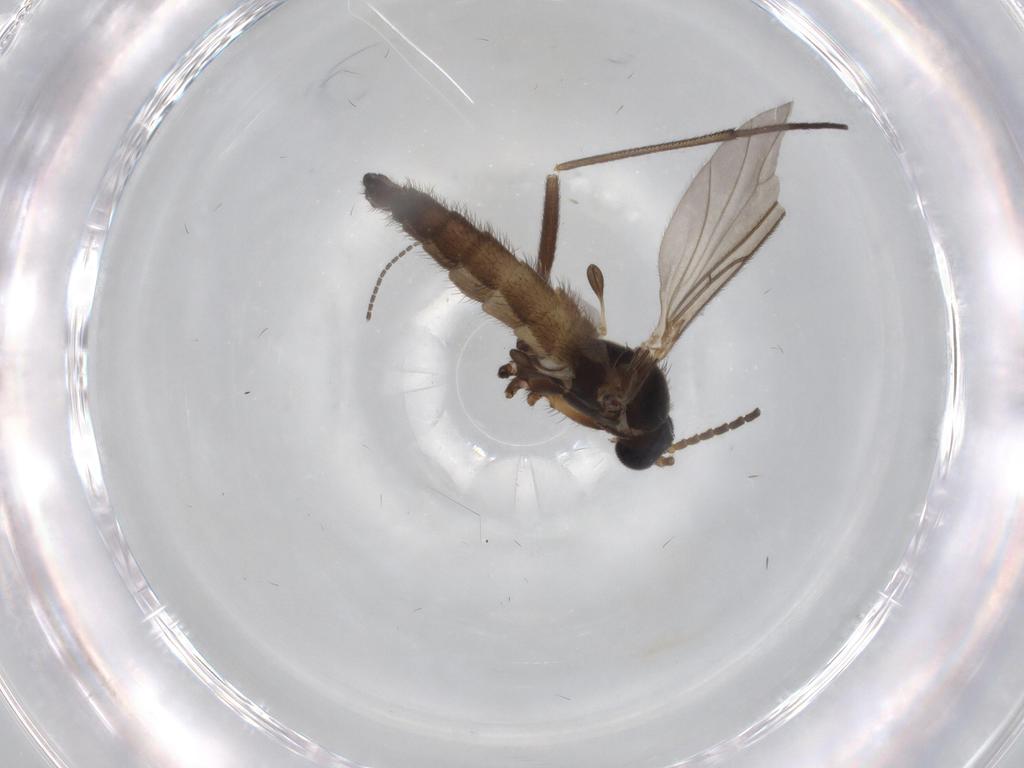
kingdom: Animalia
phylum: Arthropoda
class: Insecta
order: Diptera
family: Sciaridae
